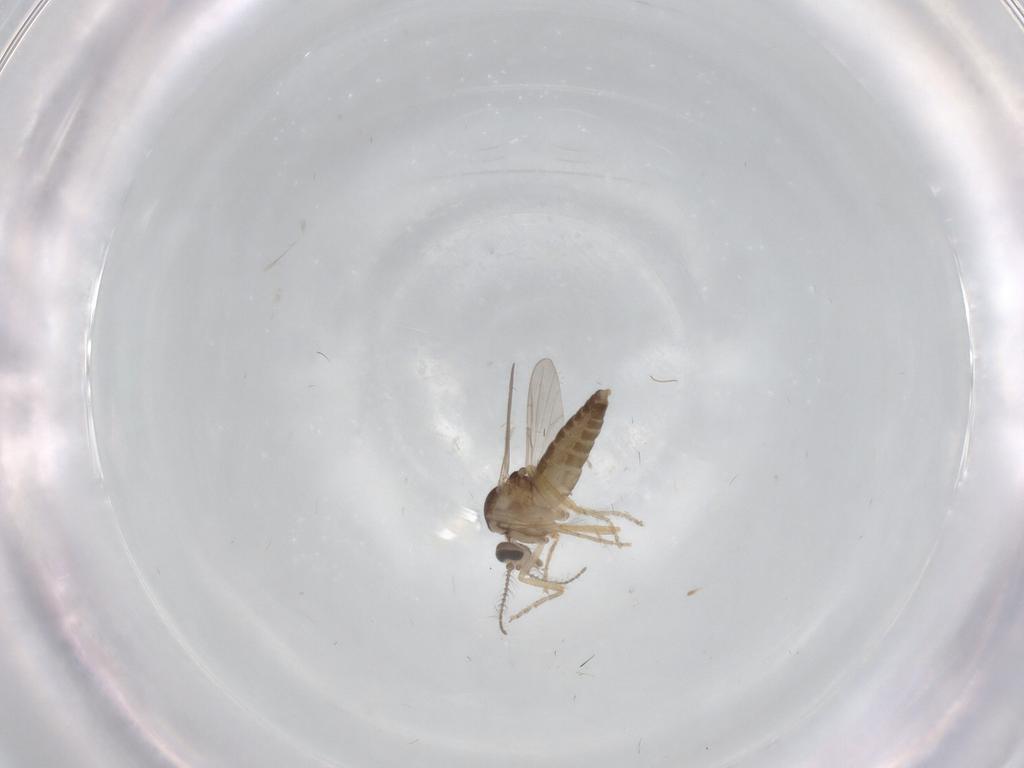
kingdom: Animalia
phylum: Arthropoda
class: Insecta
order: Diptera
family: Ceratopogonidae
